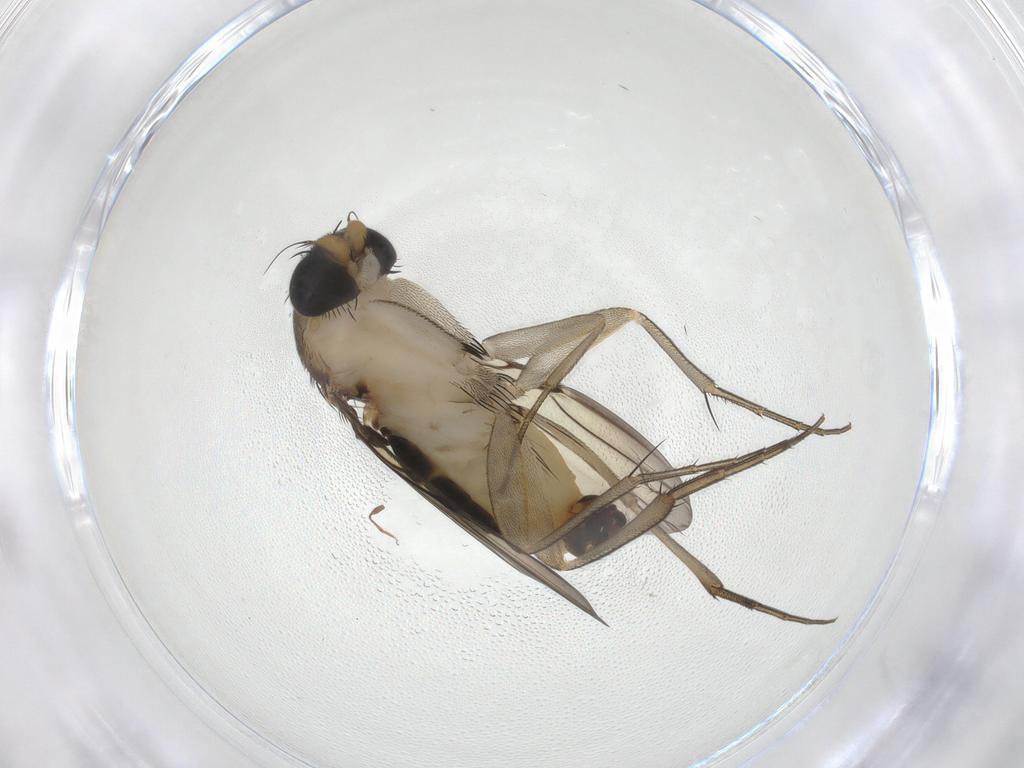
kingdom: Animalia
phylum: Arthropoda
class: Insecta
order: Diptera
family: Phoridae
